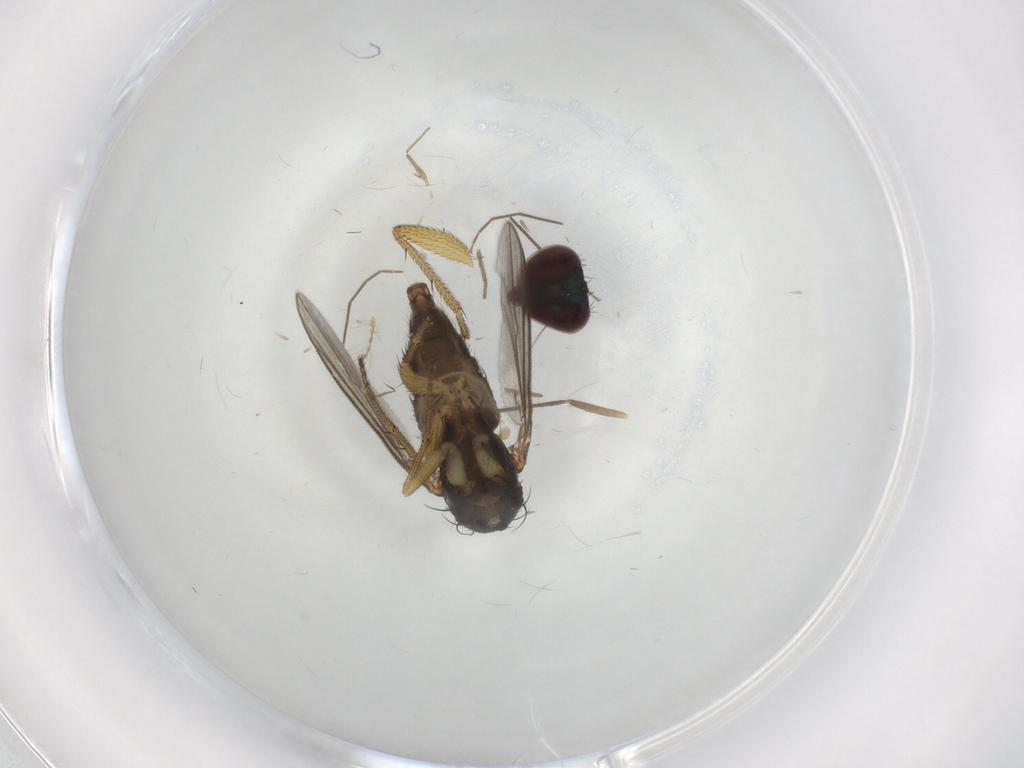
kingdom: Animalia
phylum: Arthropoda
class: Insecta
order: Diptera
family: Dolichopodidae
